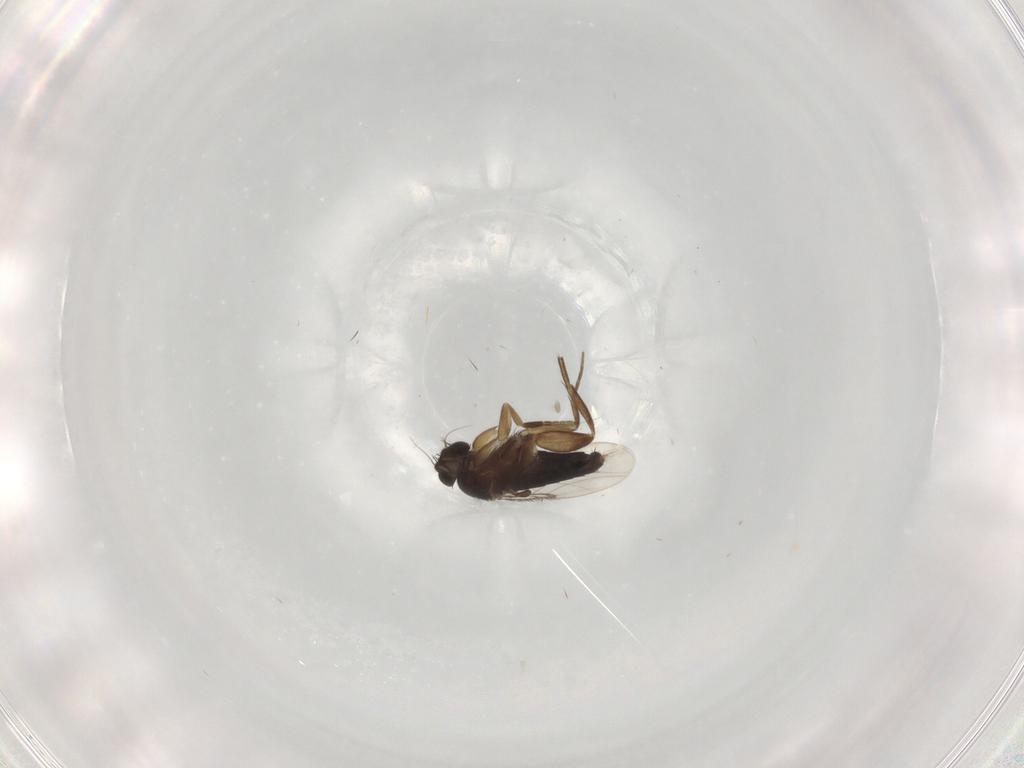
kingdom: Animalia
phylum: Arthropoda
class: Insecta
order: Diptera
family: Phoridae
